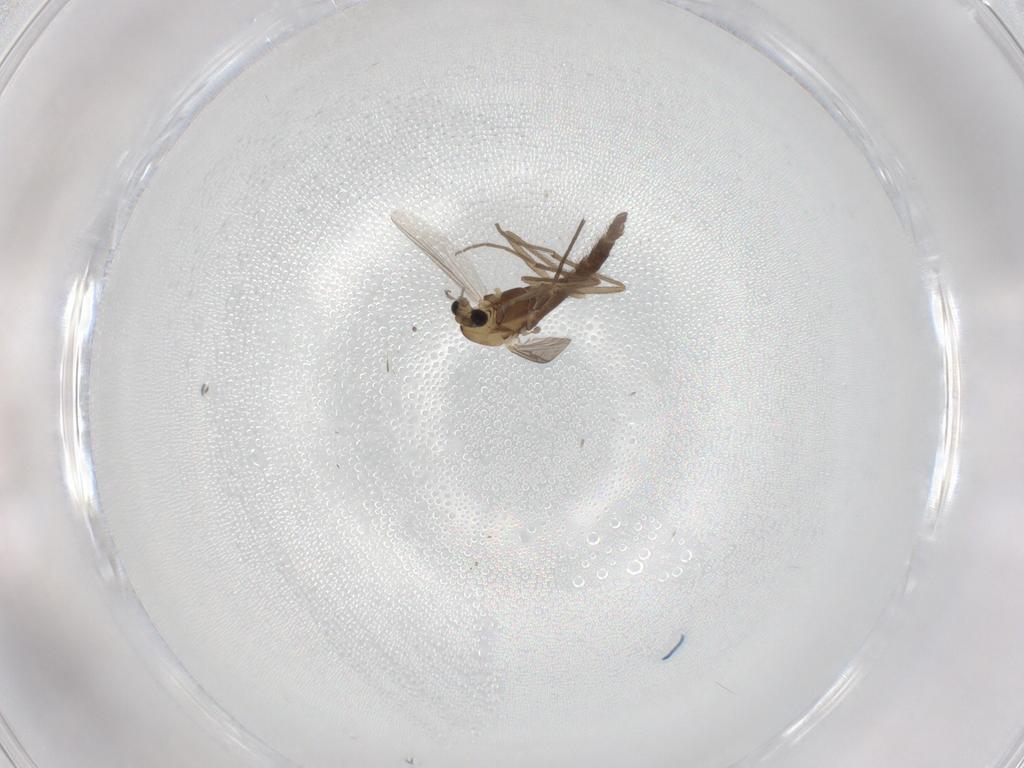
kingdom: Animalia
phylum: Arthropoda
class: Insecta
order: Diptera
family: Chironomidae
